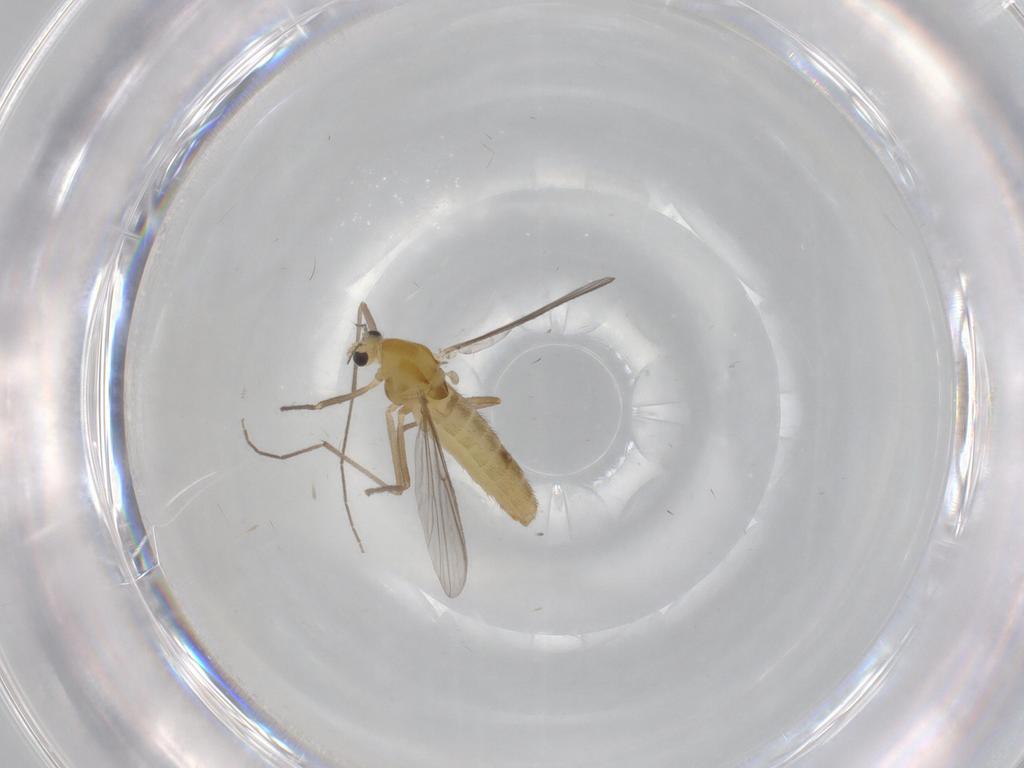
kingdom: Animalia
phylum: Arthropoda
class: Insecta
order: Diptera
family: Chironomidae
